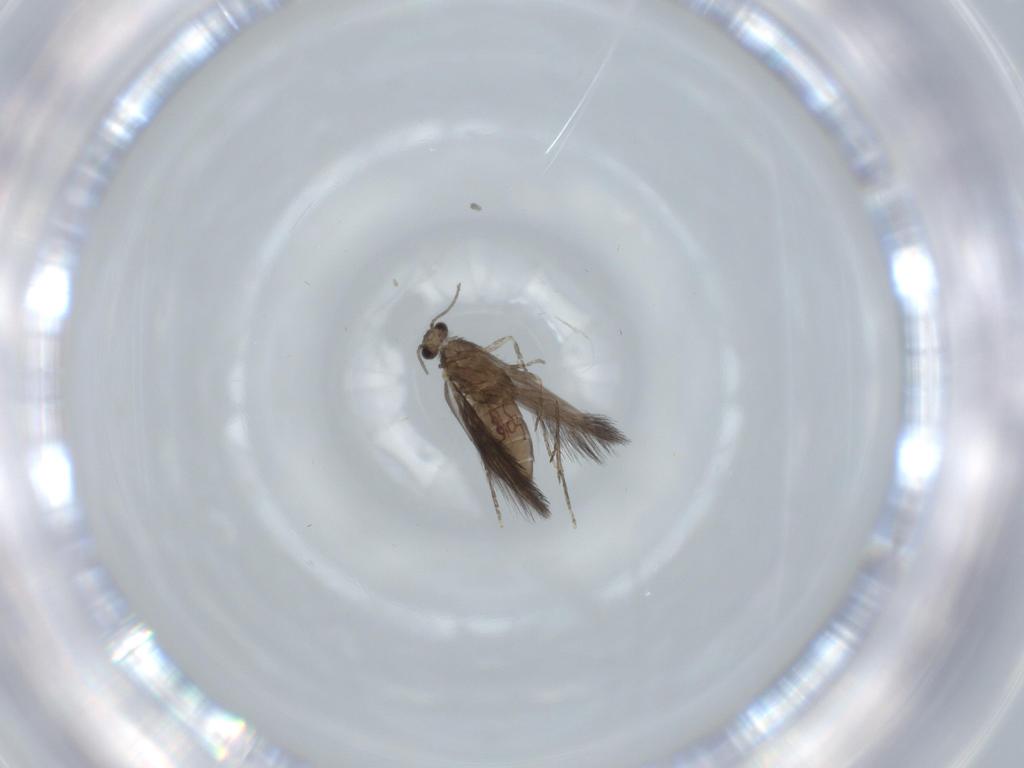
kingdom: Animalia
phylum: Arthropoda
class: Insecta
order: Trichoptera
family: Hydroptilidae
